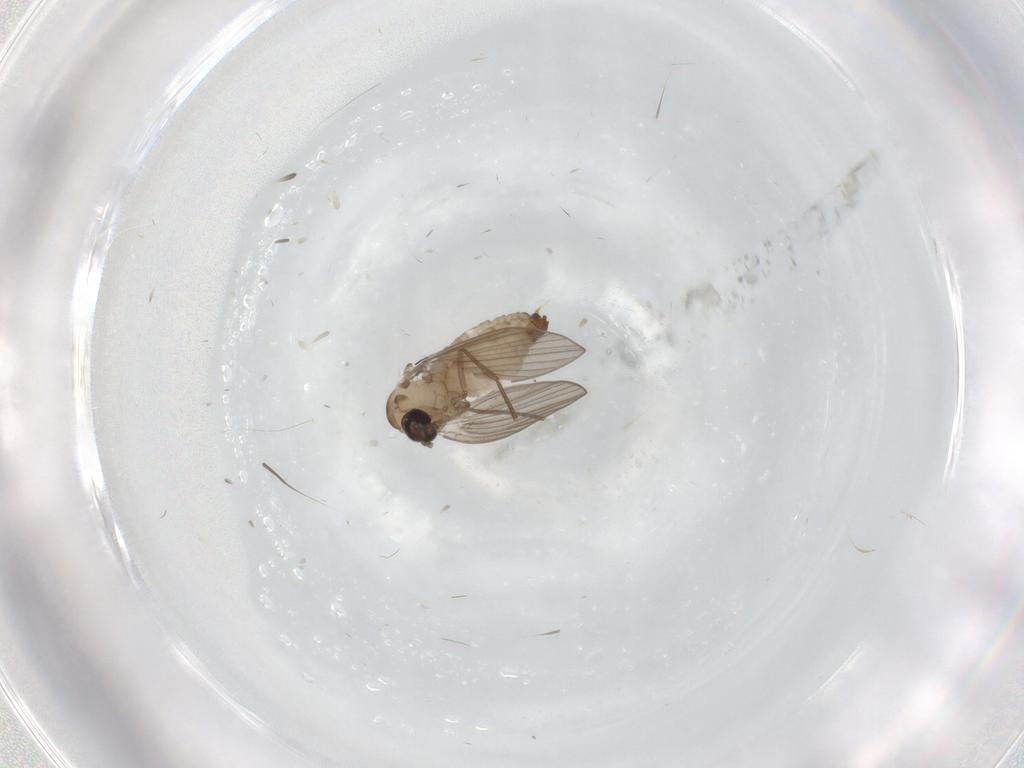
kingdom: Animalia
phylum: Arthropoda
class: Insecta
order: Diptera
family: Psychodidae
